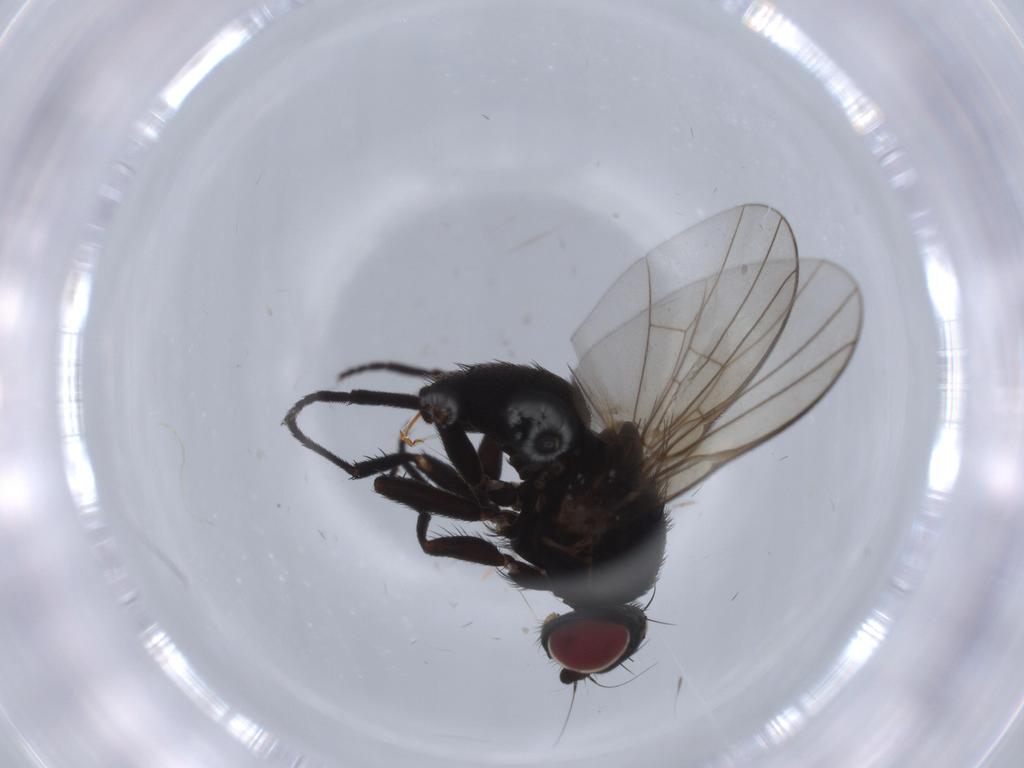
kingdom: Animalia
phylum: Arthropoda
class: Insecta
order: Diptera
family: Phoridae
